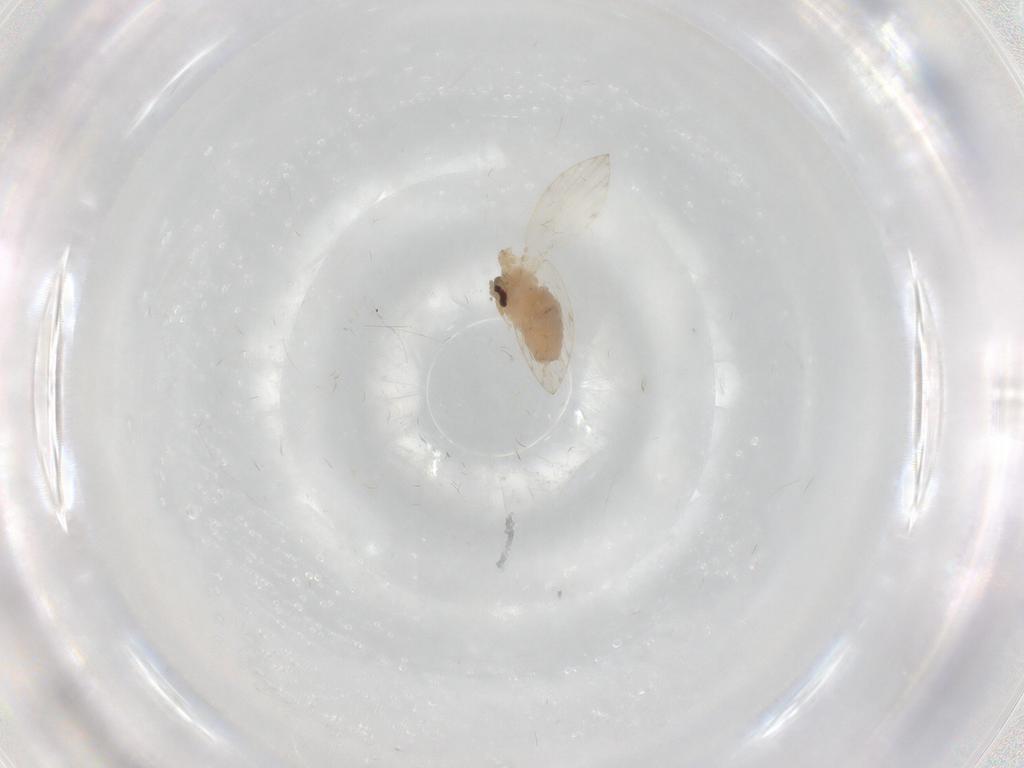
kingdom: Animalia
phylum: Arthropoda
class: Insecta
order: Diptera
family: Psychodidae
